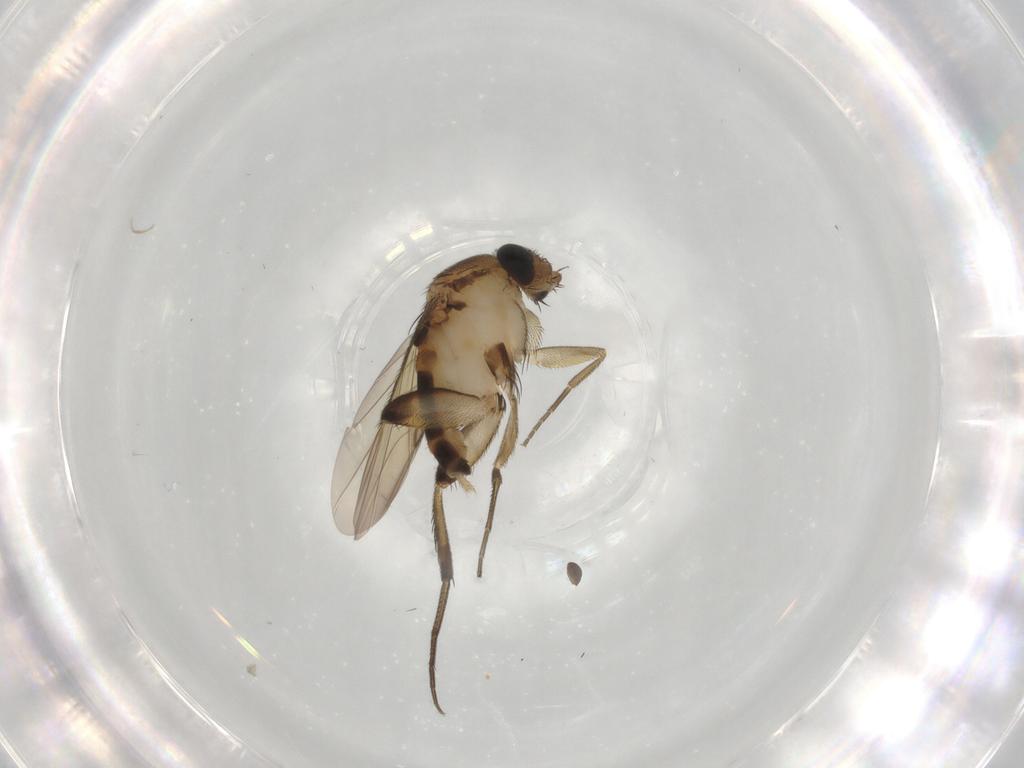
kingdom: Animalia
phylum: Arthropoda
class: Insecta
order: Diptera
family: Phoridae
